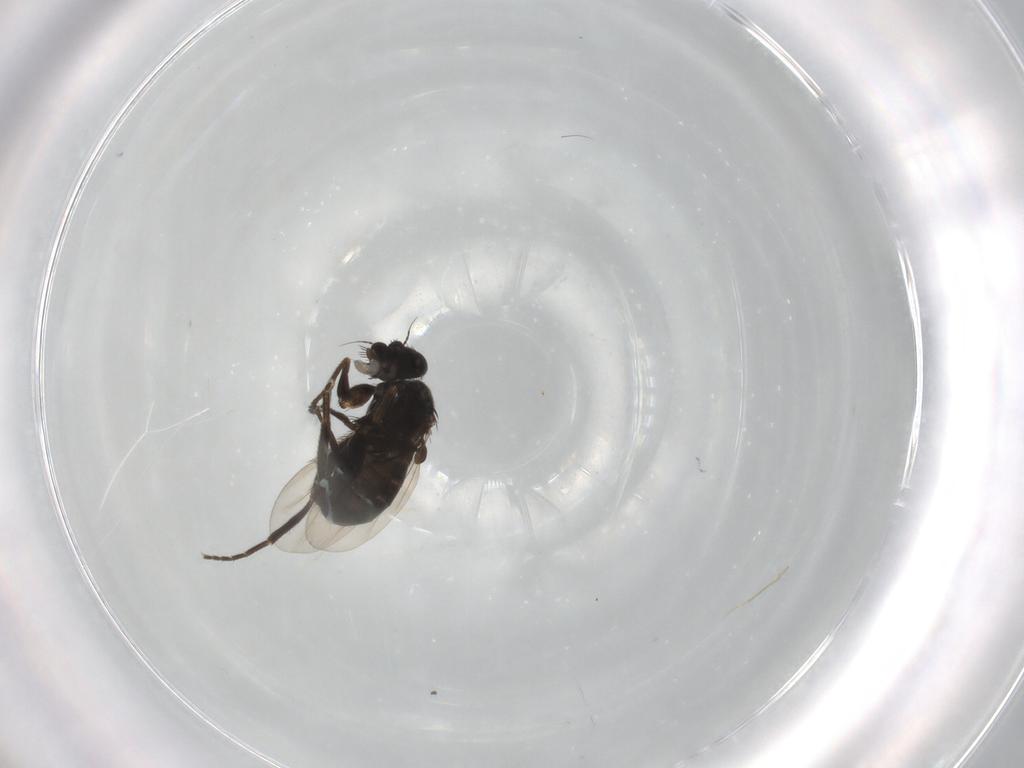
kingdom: Animalia
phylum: Arthropoda
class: Insecta
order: Diptera
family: Phoridae
